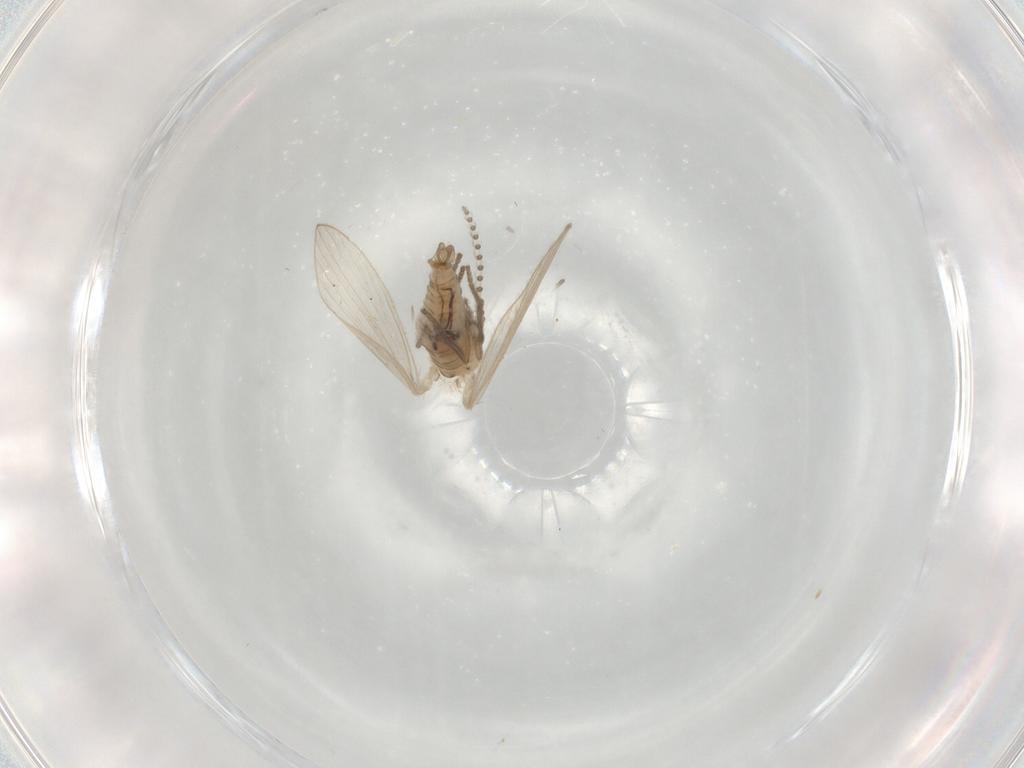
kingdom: Animalia
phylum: Arthropoda
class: Insecta
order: Diptera
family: Psychodidae
